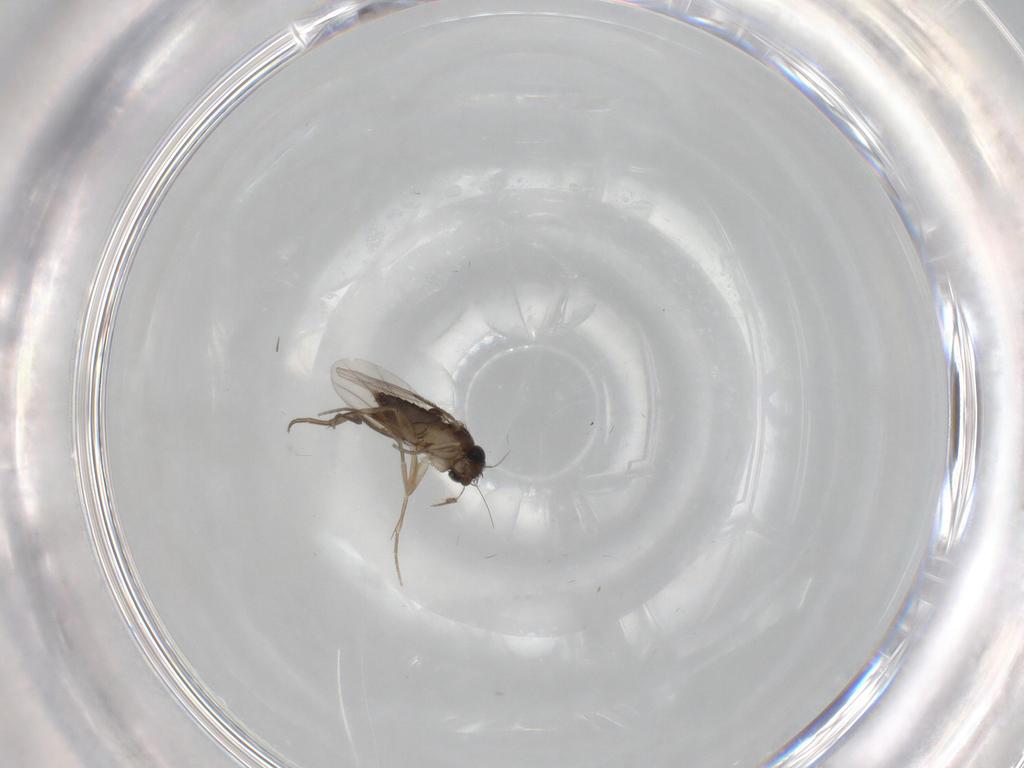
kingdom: Animalia
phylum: Arthropoda
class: Insecta
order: Diptera
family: Phoridae
